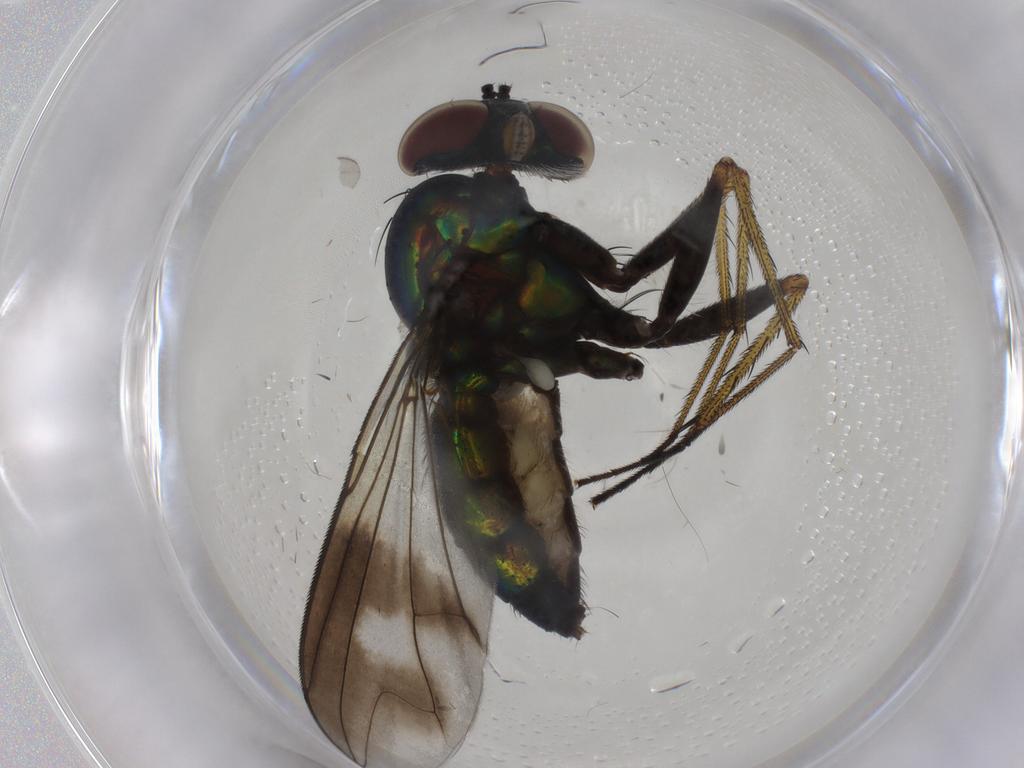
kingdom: Animalia
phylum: Arthropoda
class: Insecta
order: Diptera
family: Dolichopodidae
